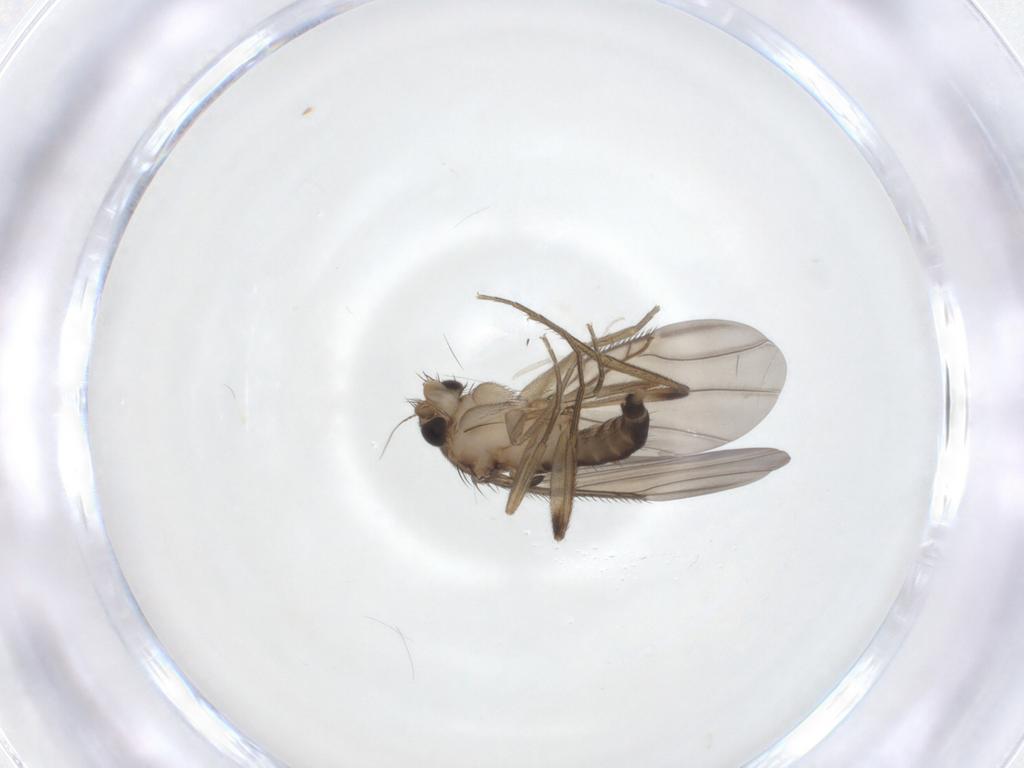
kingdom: Animalia
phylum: Arthropoda
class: Insecta
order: Diptera
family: Phoridae
